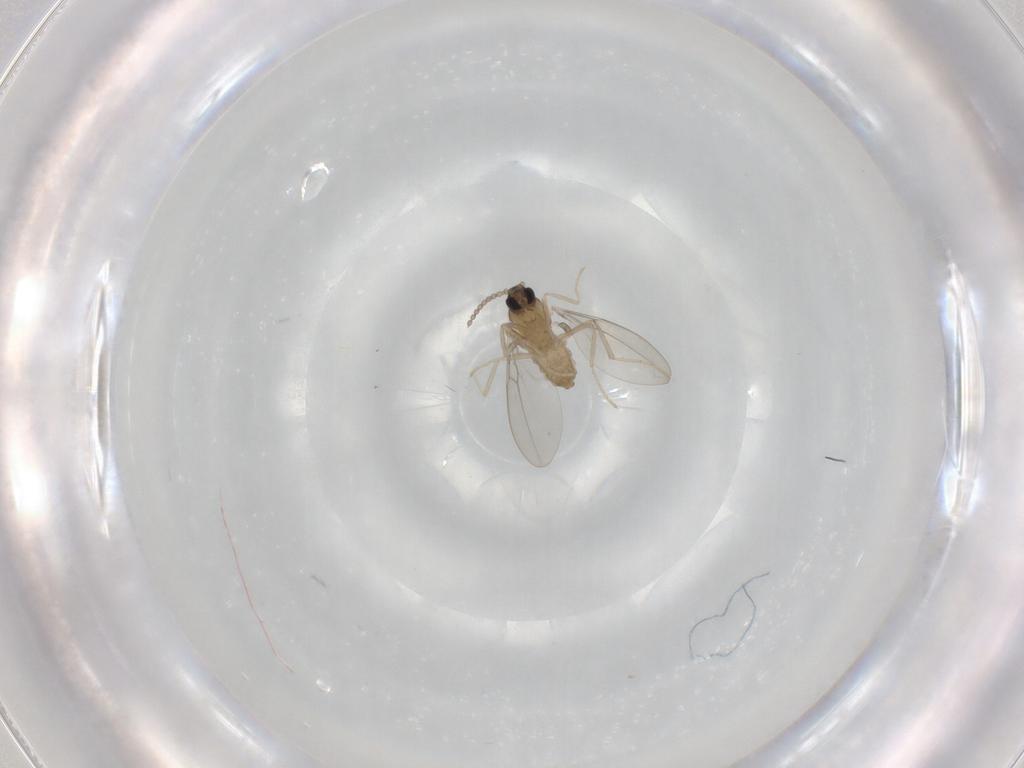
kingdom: Animalia
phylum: Arthropoda
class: Insecta
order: Diptera
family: Cecidomyiidae
